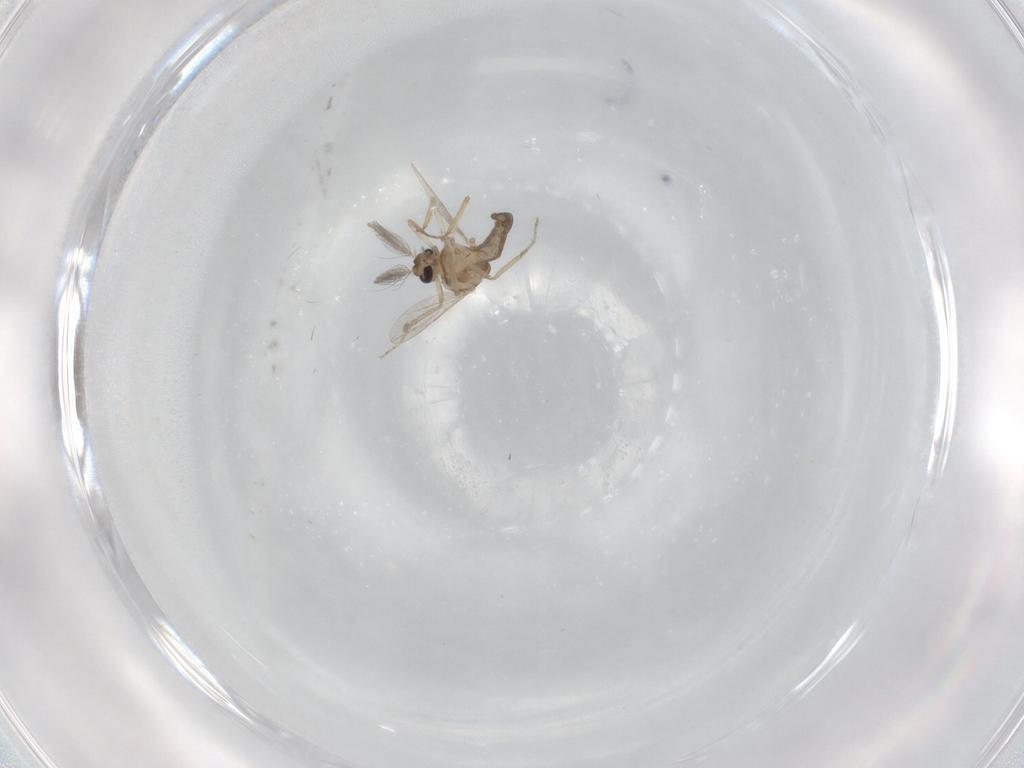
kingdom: Animalia
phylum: Arthropoda
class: Insecta
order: Diptera
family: Ceratopogonidae
